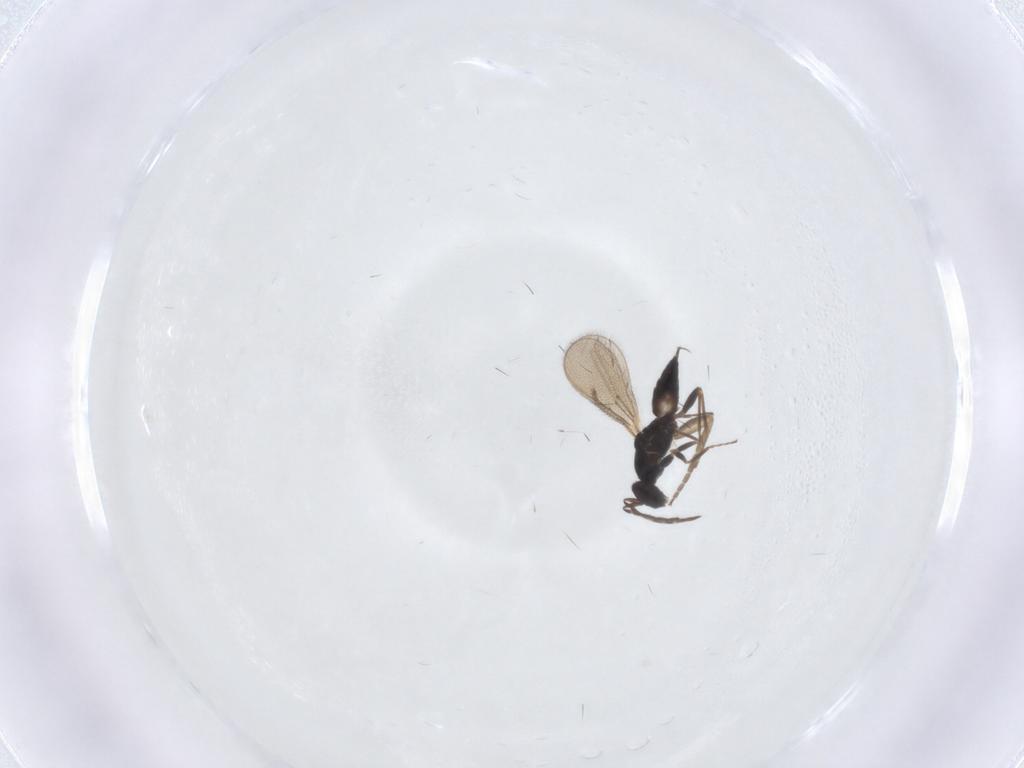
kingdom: Animalia
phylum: Arthropoda
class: Insecta
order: Hymenoptera
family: Eulophidae
